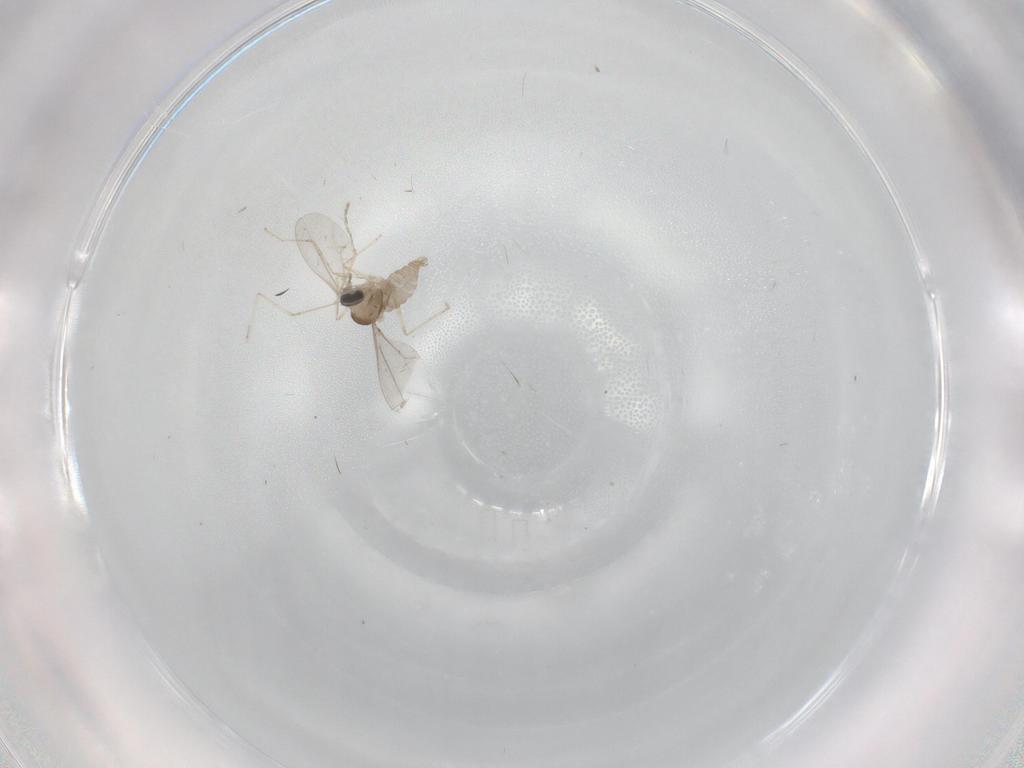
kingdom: Animalia
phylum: Arthropoda
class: Insecta
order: Diptera
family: Cecidomyiidae
